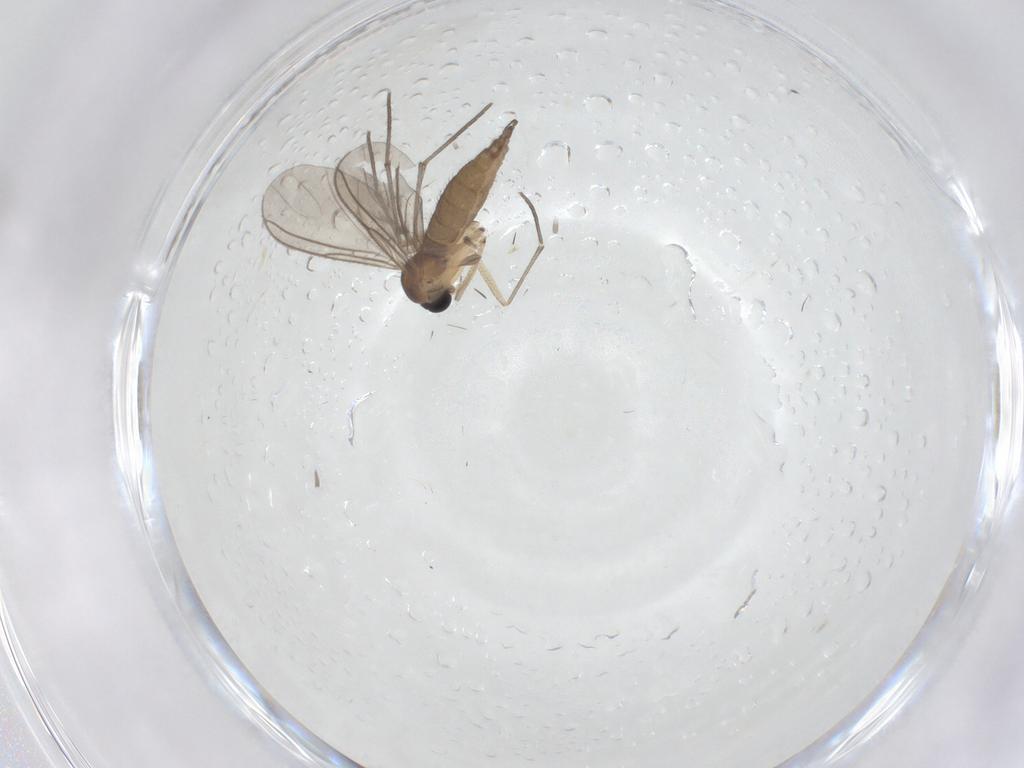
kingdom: Animalia
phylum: Arthropoda
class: Insecta
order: Diptera
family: Sciaridae
